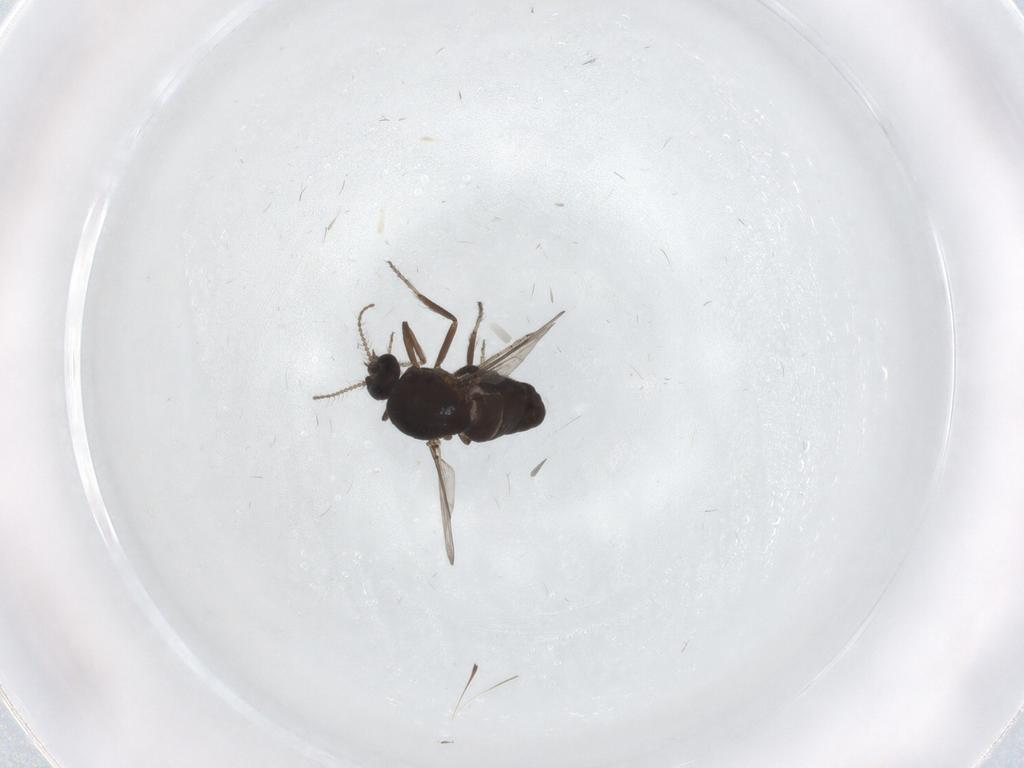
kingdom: Animalia
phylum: Arthropoda
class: Insecta
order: Diptera
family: Ceratopogonidae
